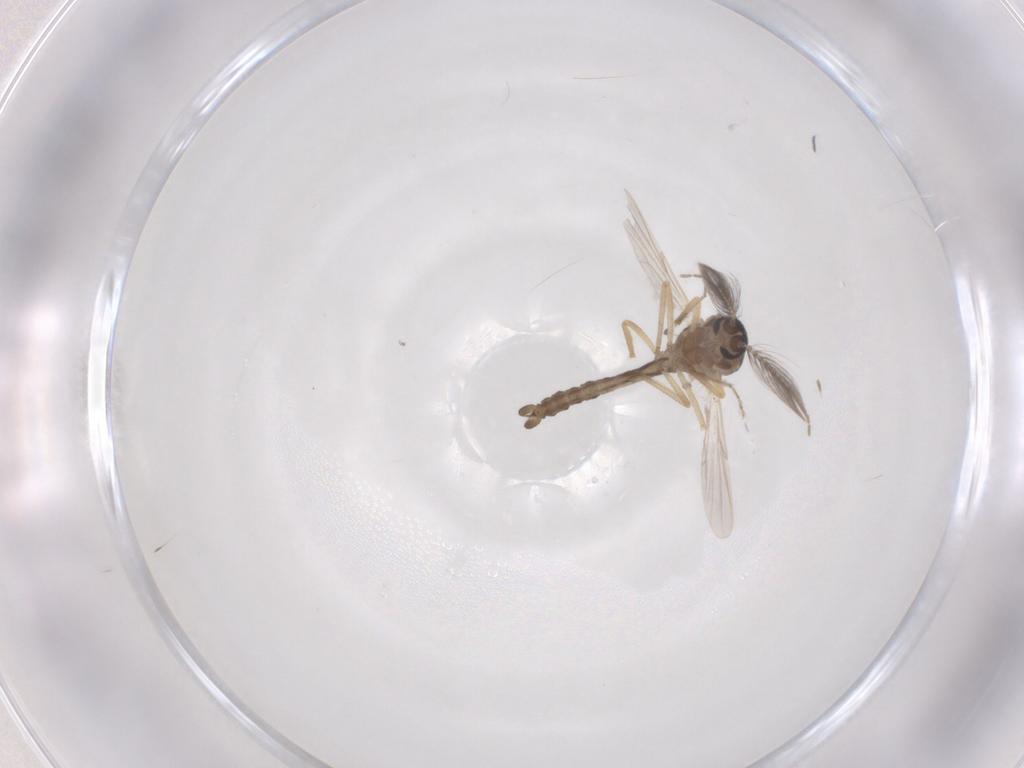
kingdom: Animalia
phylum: Arthropoda
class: Insecta
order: Diptera
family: Ceratopogonidae
